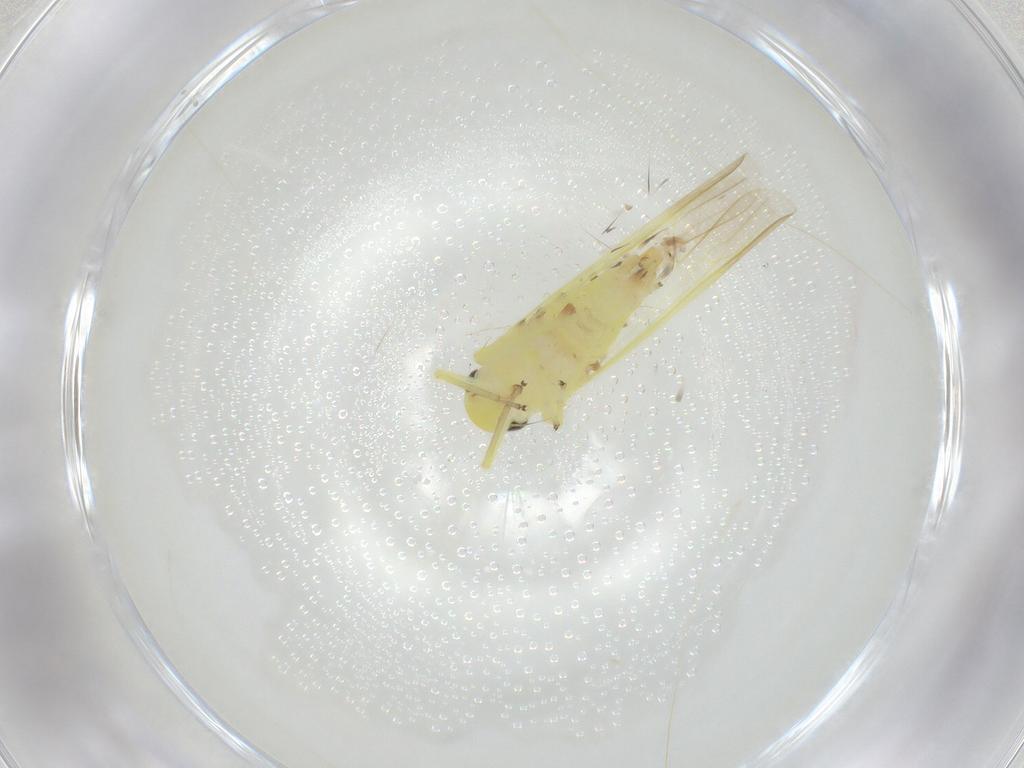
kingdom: Animalia
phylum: Arthropoda
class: Insecta
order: Hemiptera
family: Cicadellidae
